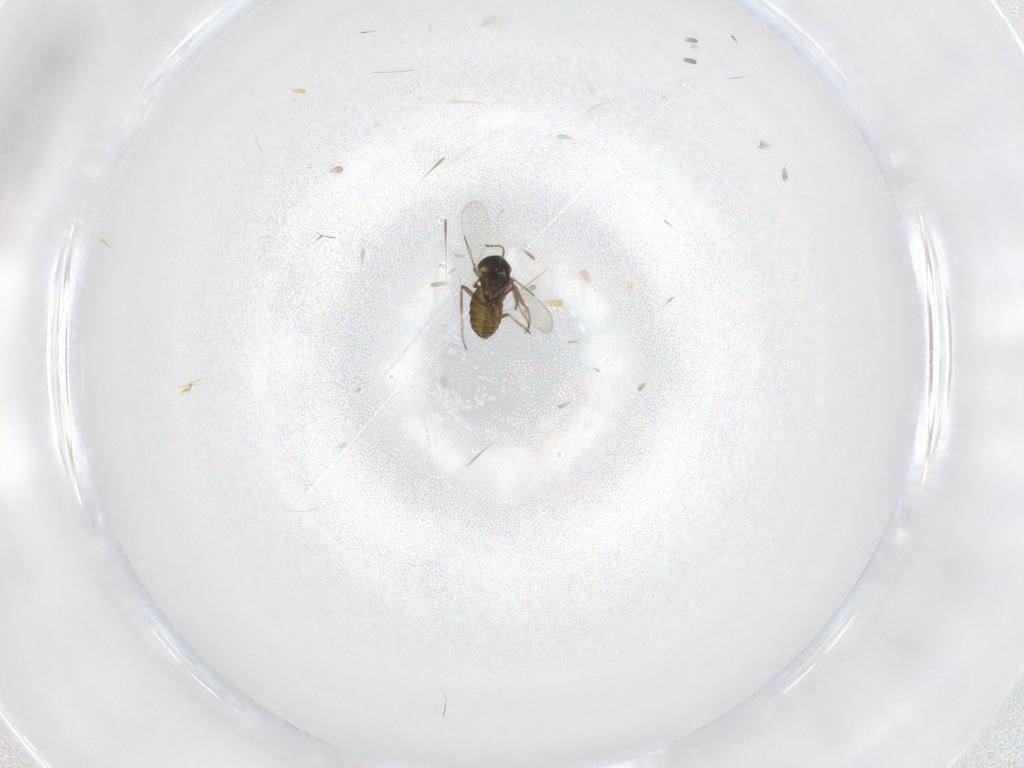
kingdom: Animalia
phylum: Arthropoda
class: Insecta
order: Diptera
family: Ceratopogonidae
